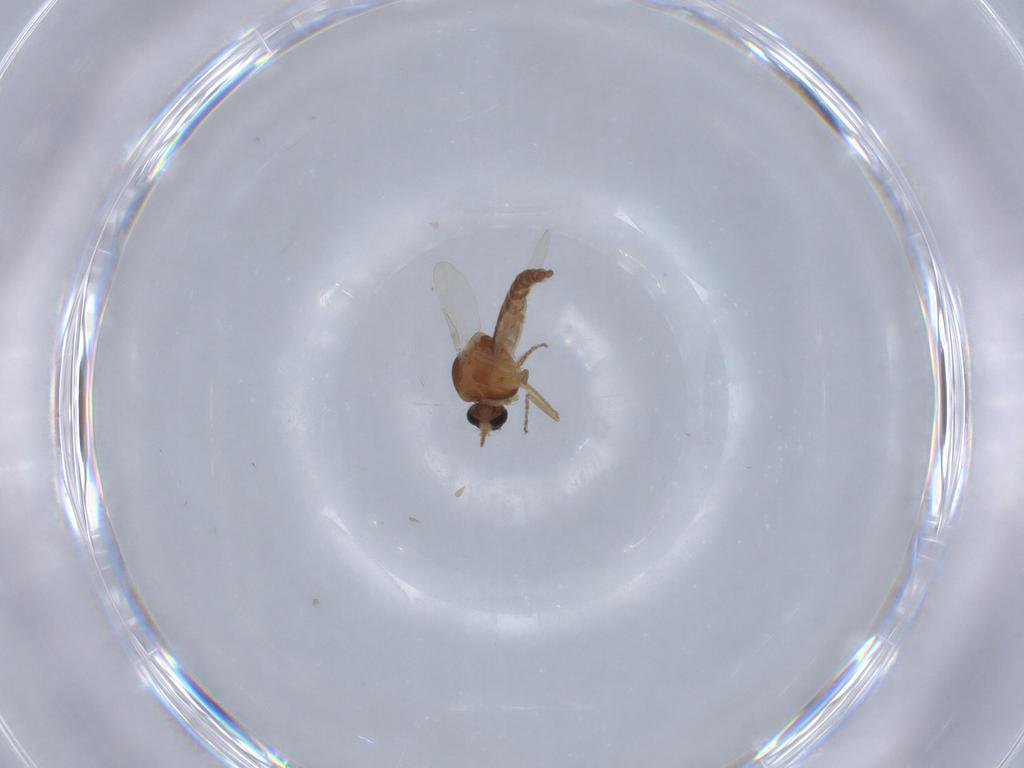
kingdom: Animalia
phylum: Arthropoda
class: Insecta
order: Diptera
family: Ceratopogonidae
